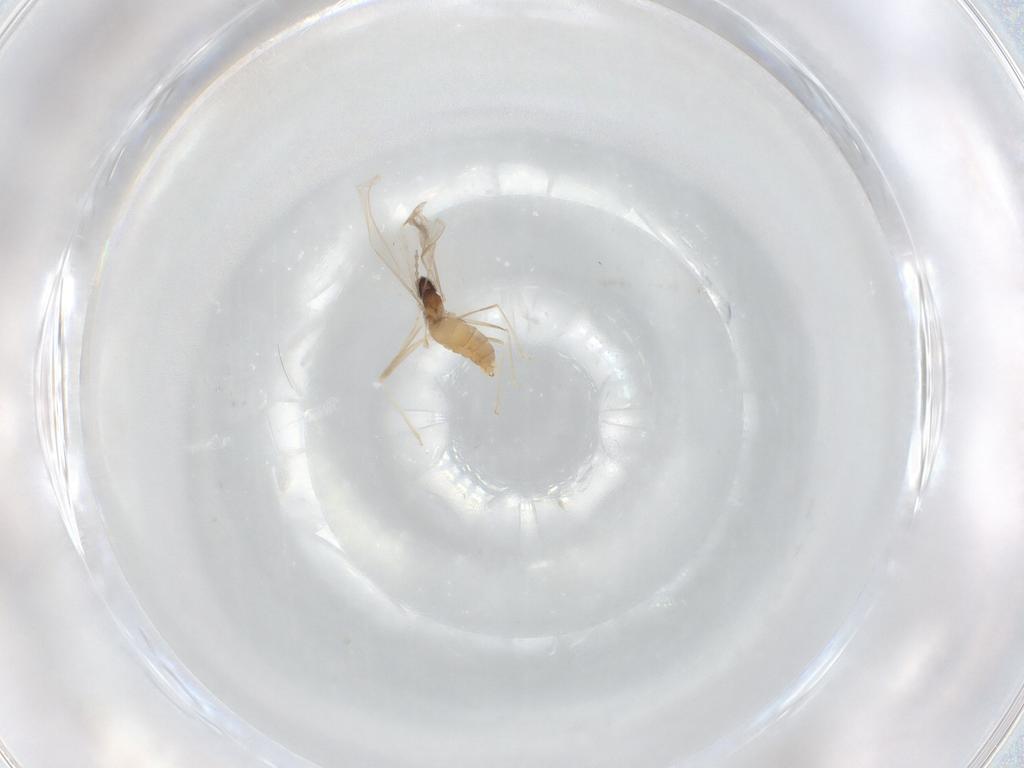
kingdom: Animalia
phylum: Arthropoda
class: Insecta
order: Diptera
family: Cecidomyiidae
